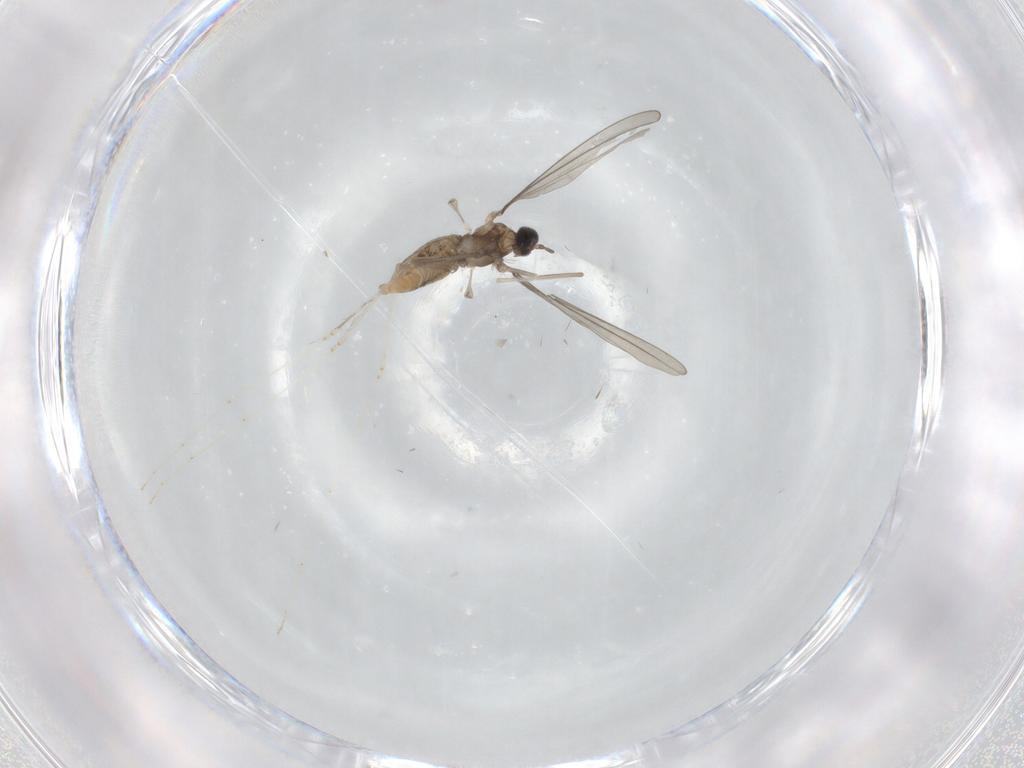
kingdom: Animalia
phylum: Arthropoda
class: Insecta
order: Diptera
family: Cecidomyiidae
